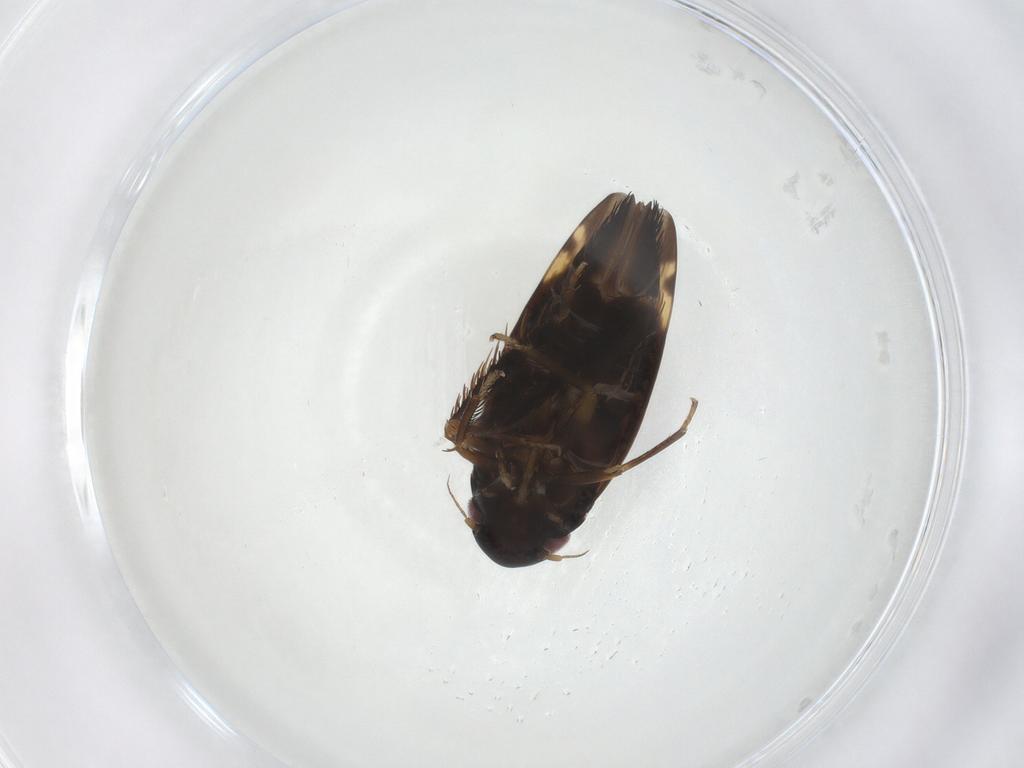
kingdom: Animalia
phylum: Arthropoda
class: Insecta
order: Hemiptera
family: Cicadellidae
